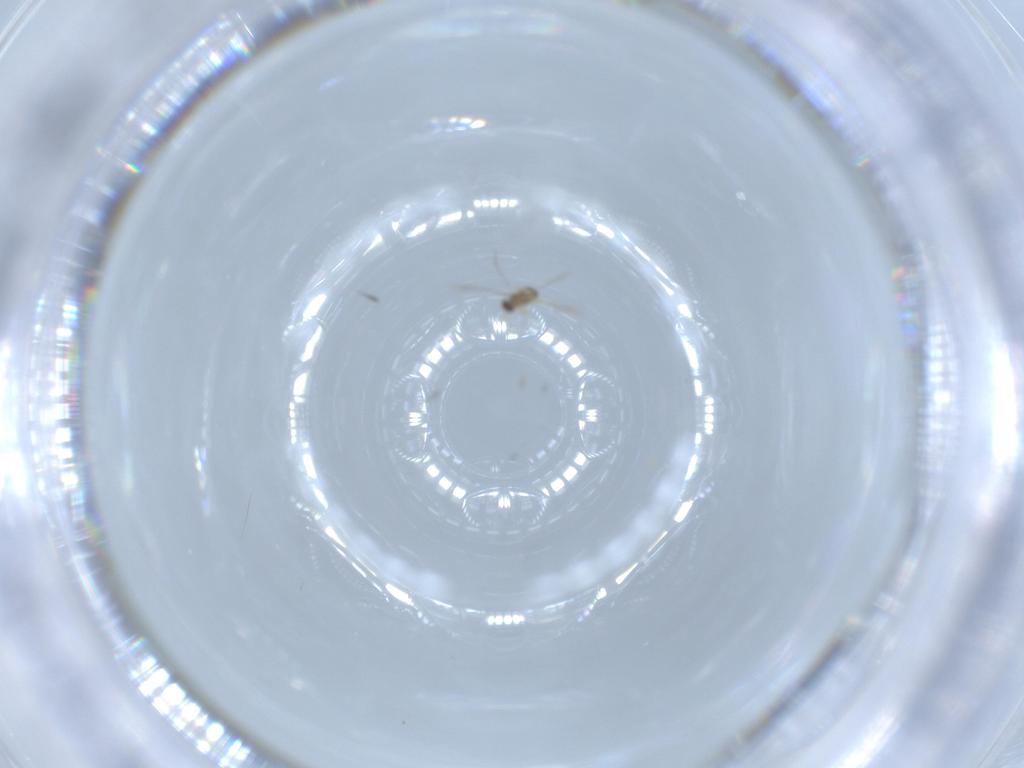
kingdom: Animalia
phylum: Arthropoda
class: Insecta
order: Hymenoptera
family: Mymaridae
